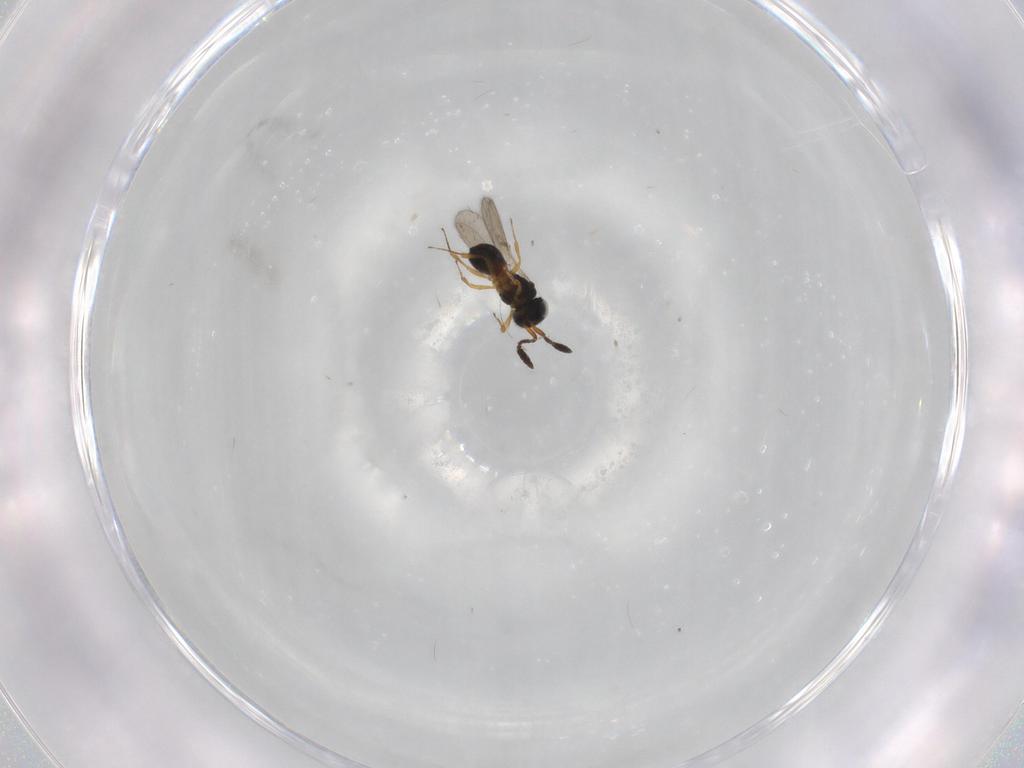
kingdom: Animalia
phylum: Arthropoda
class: Insecta
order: Hymenoptera
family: Scelionidae
